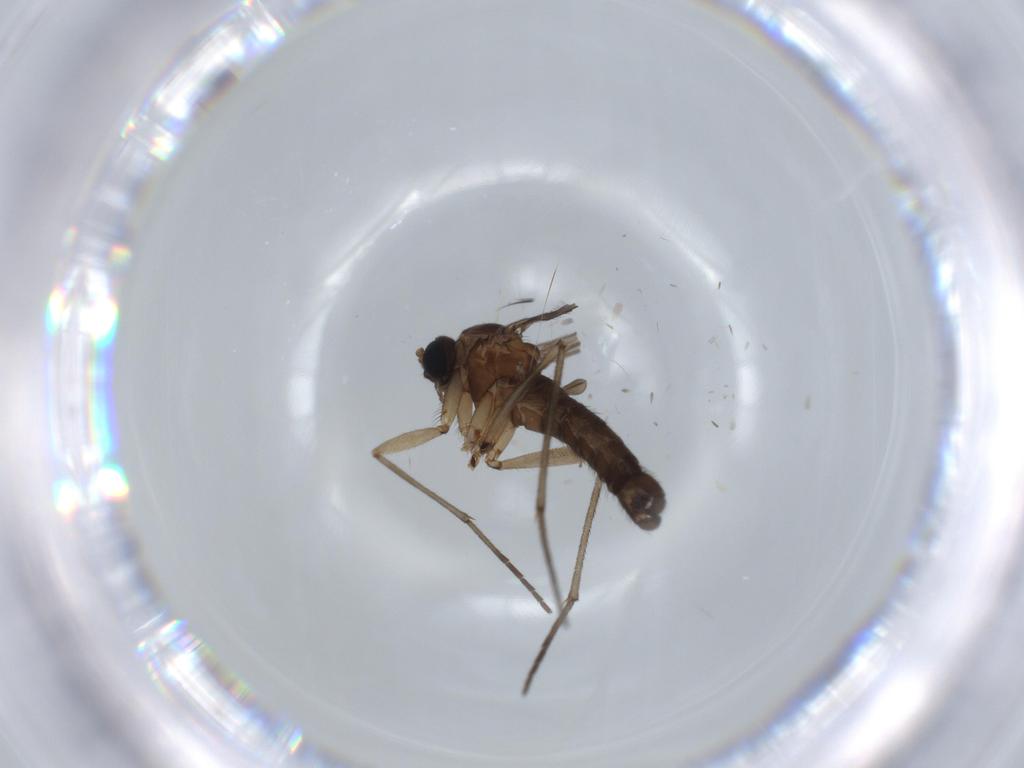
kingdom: Animalia
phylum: Arthropoda
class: Insecta
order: Diptera
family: Sciaridae
